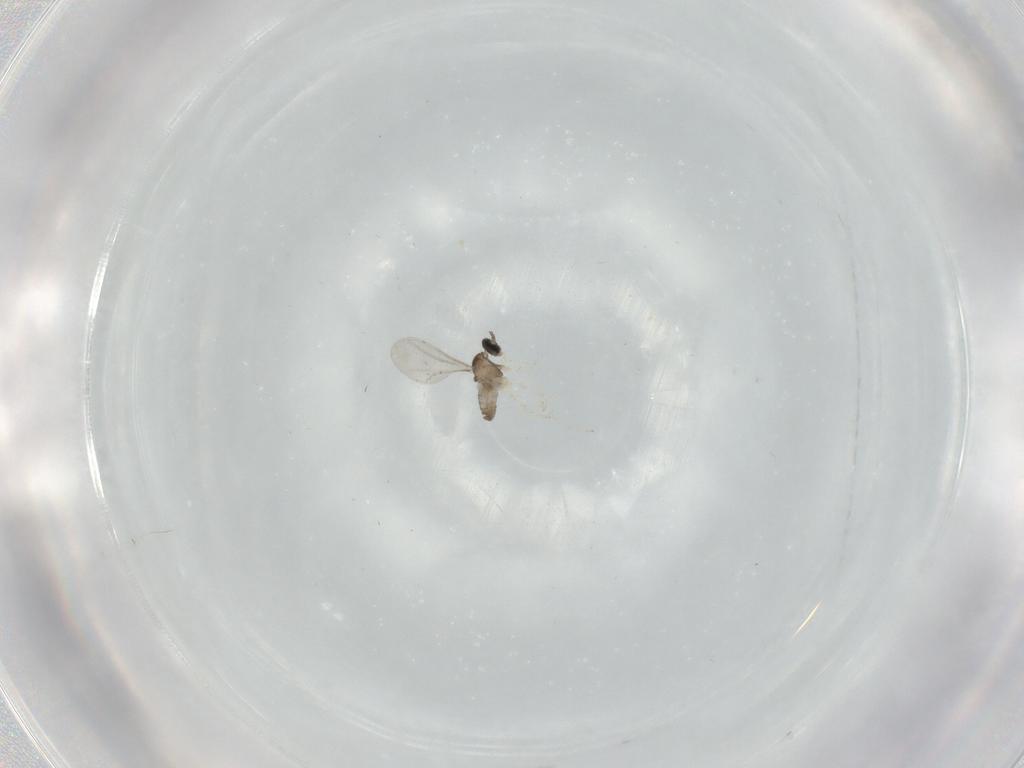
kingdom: Animalia
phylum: Arthropoda
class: Insecta
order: Diptera
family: Cecidomyiidae
